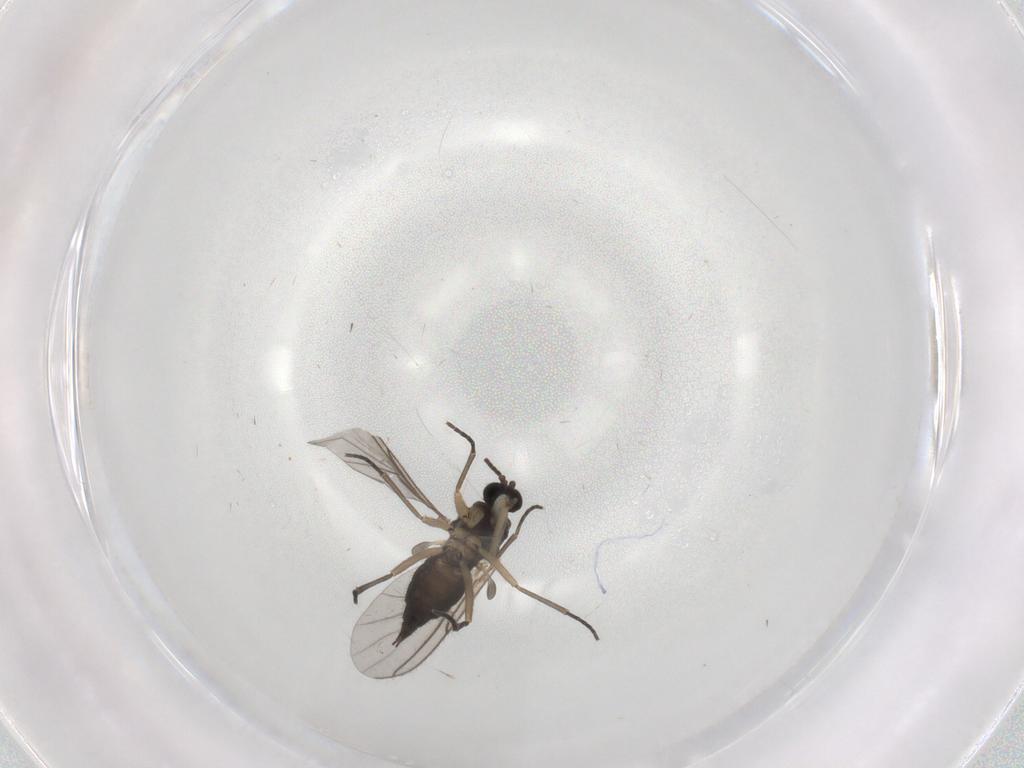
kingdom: Animalia
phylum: Arthropoda
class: Insecta
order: Diptera
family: Sciaridae
